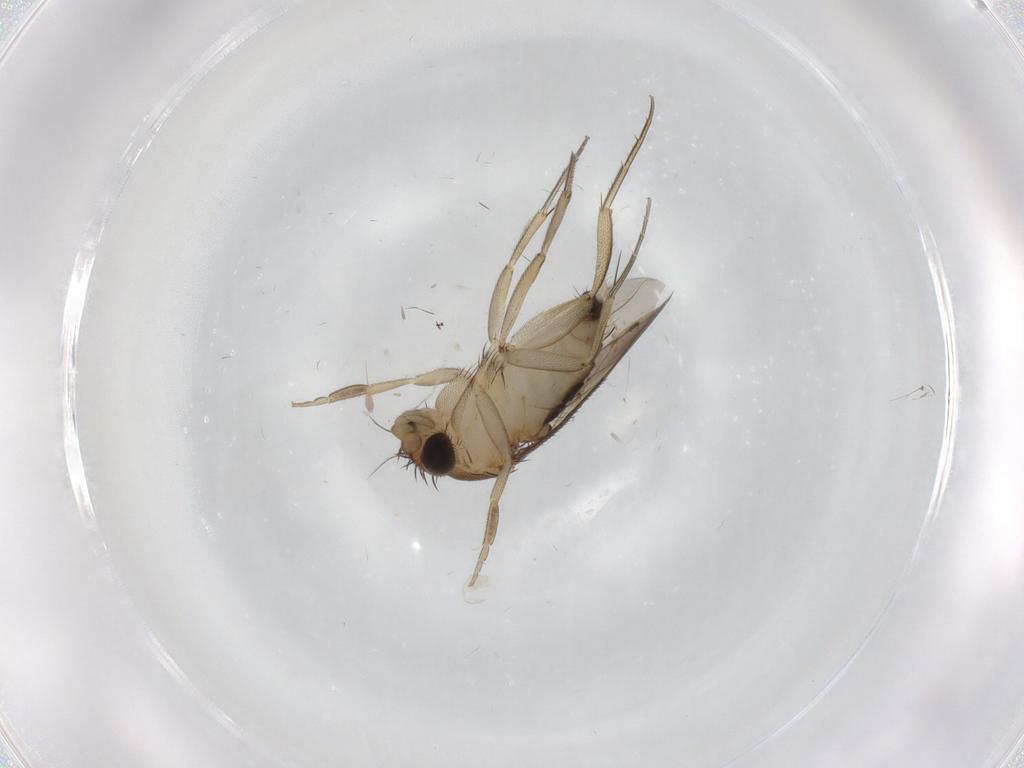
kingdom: Animalia
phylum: Arthropoda
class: Insecta
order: Diptera
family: Phoridae
